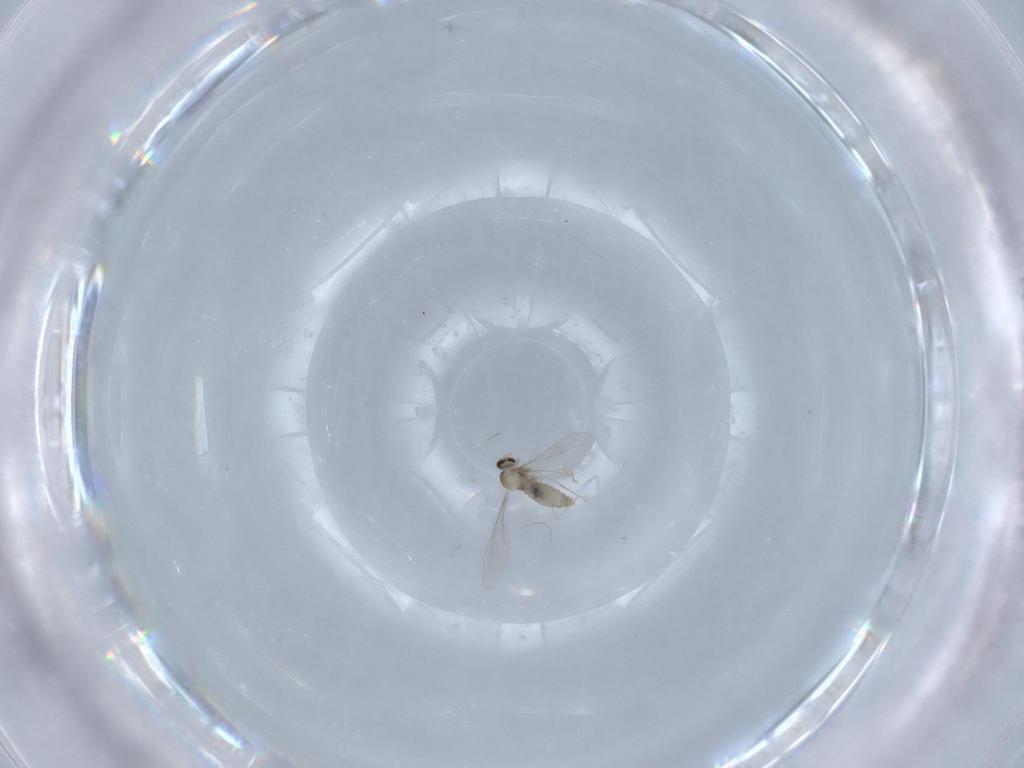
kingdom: Animalia
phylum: Arthropoda
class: Insecta
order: Diptera
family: Cecidomyiidae
